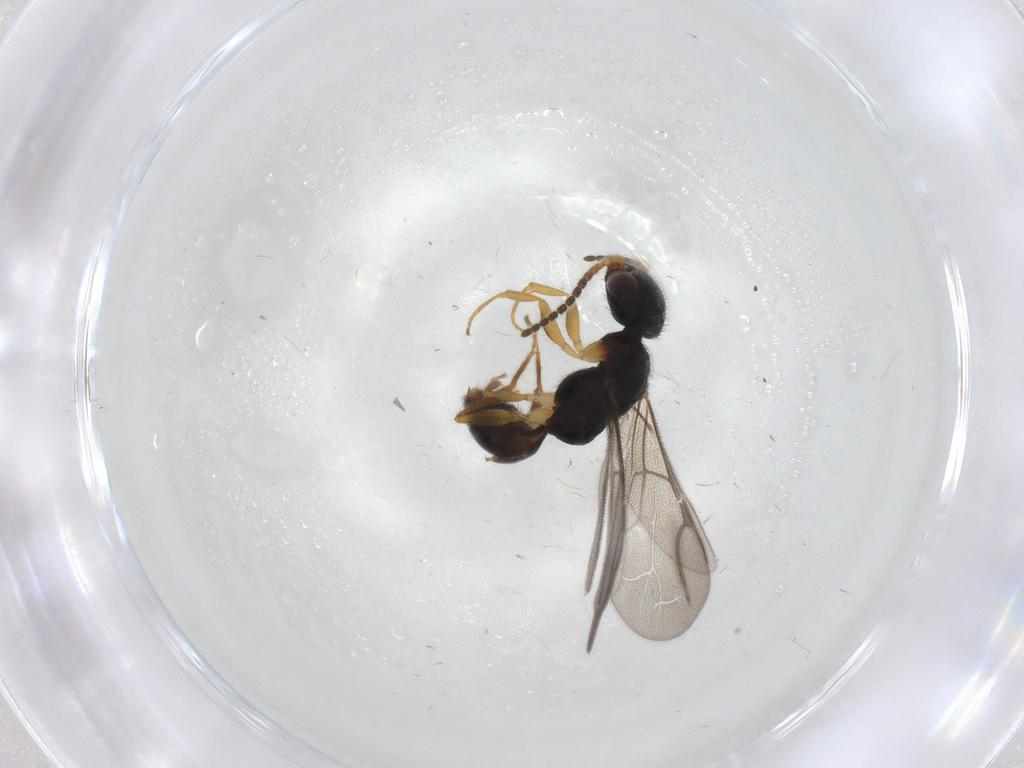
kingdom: Animalia
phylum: Arthropoda
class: Insecta
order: Hymenoptera
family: Bethylidae
